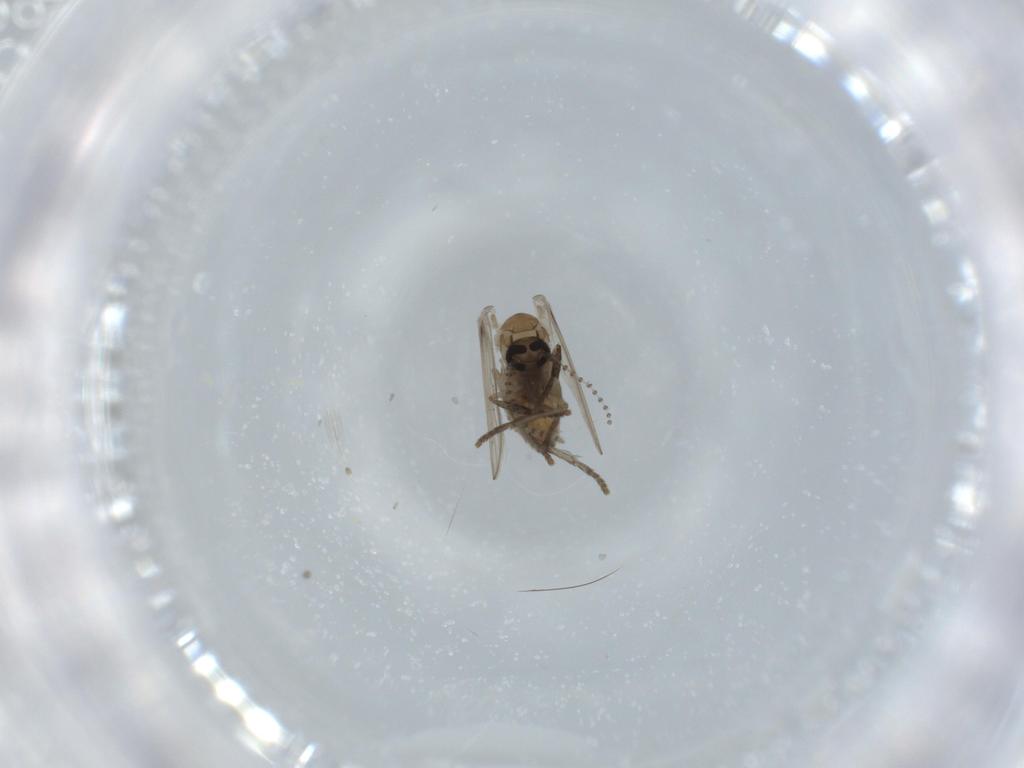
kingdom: Animalia
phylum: Arthropoda
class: Insecta
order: Diptera
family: Psychodidae
